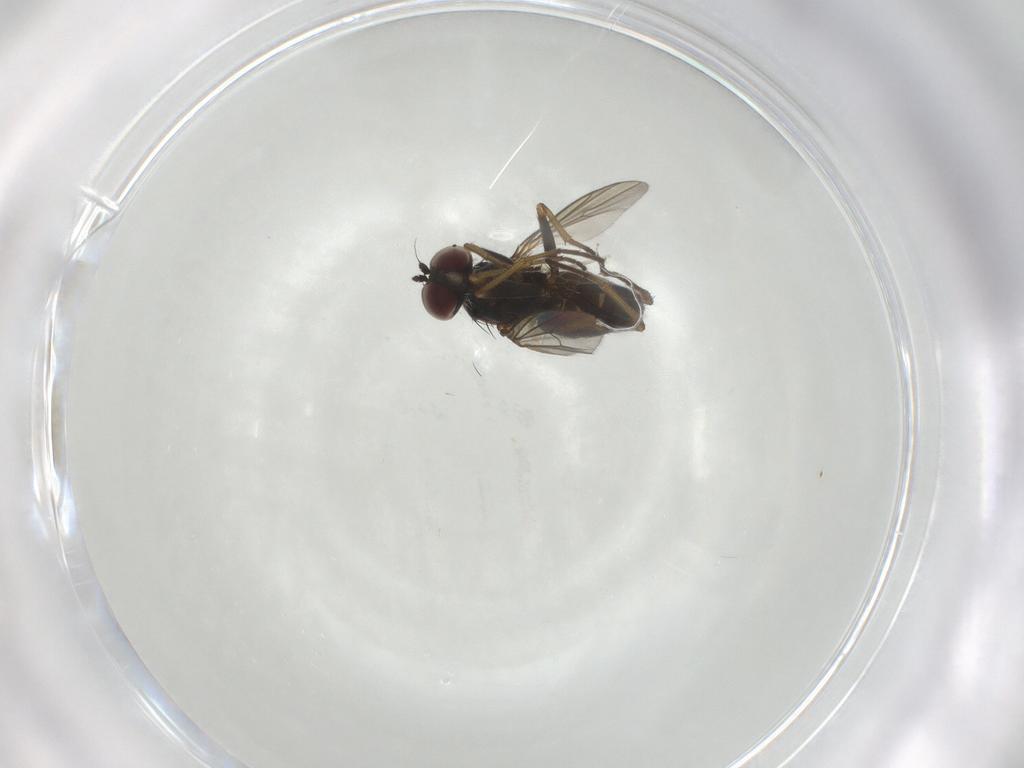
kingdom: Animalia
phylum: Arthropoda
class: Insecta
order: Diptera
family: Dolichopodidae
